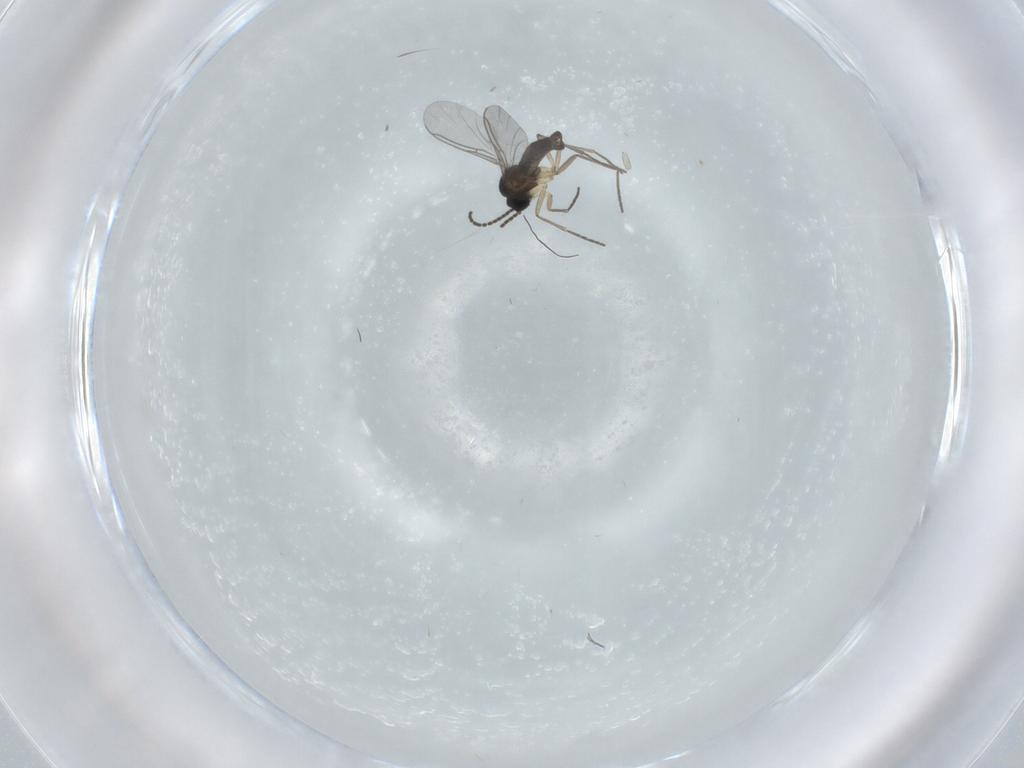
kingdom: Animalia
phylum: Arthropoda
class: Insecta
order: Diptera
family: Sciaridae
